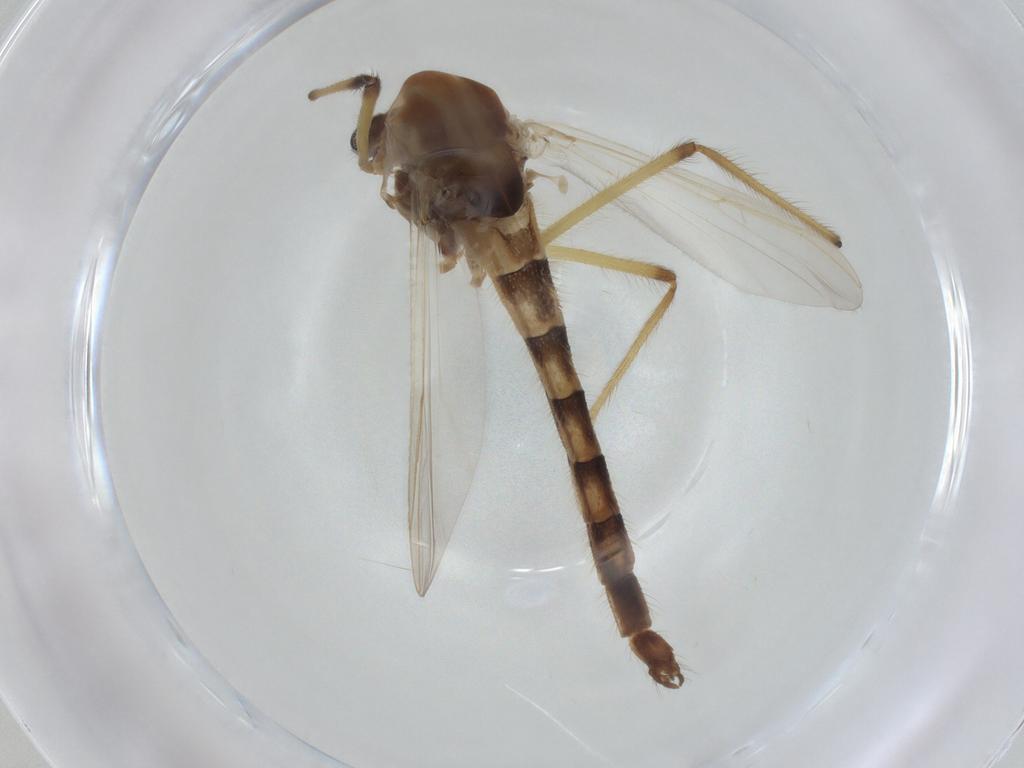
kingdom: Animalia
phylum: Arthropoda
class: Insecta
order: Diptera
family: Chironomidae
